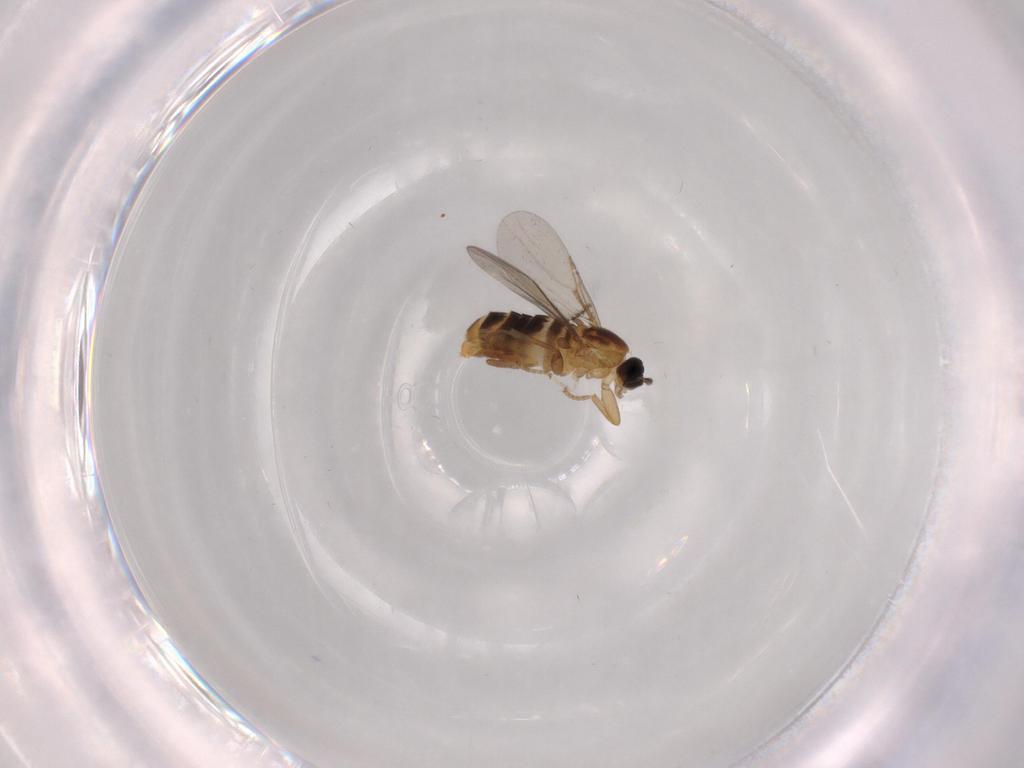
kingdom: Animalia
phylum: Arthropoda
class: Insecta
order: Diptera
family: Scatopsidae
